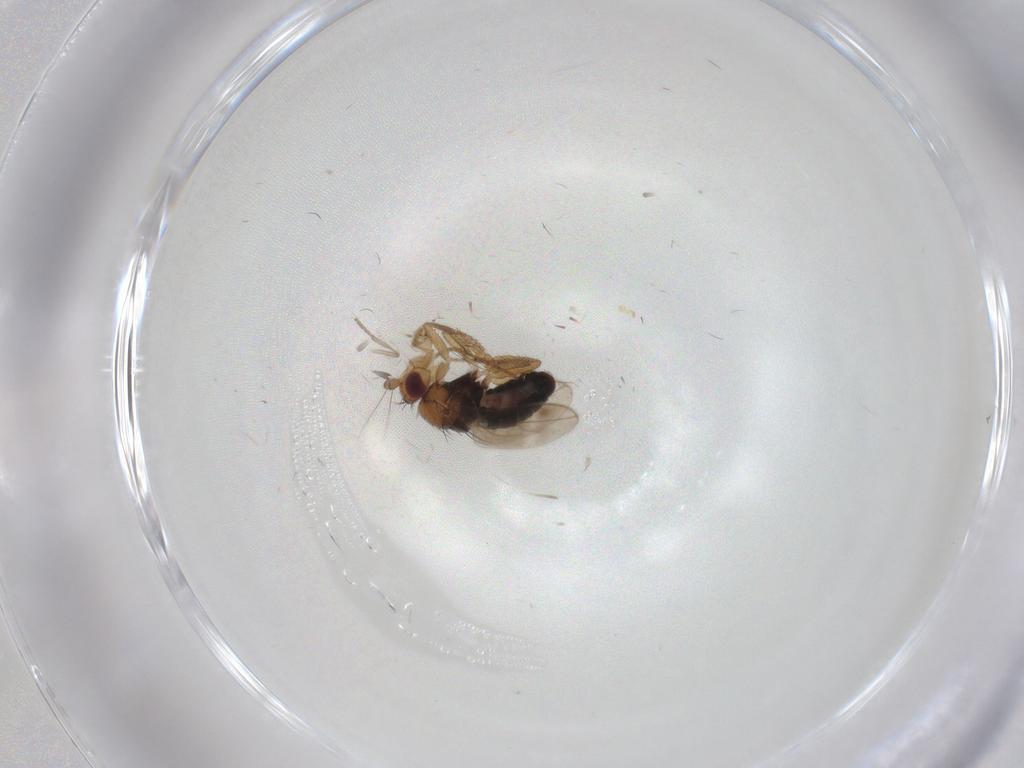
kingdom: Animalia
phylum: Arthropoda
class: Insecta
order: Diptera
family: Sphaeroceridae
